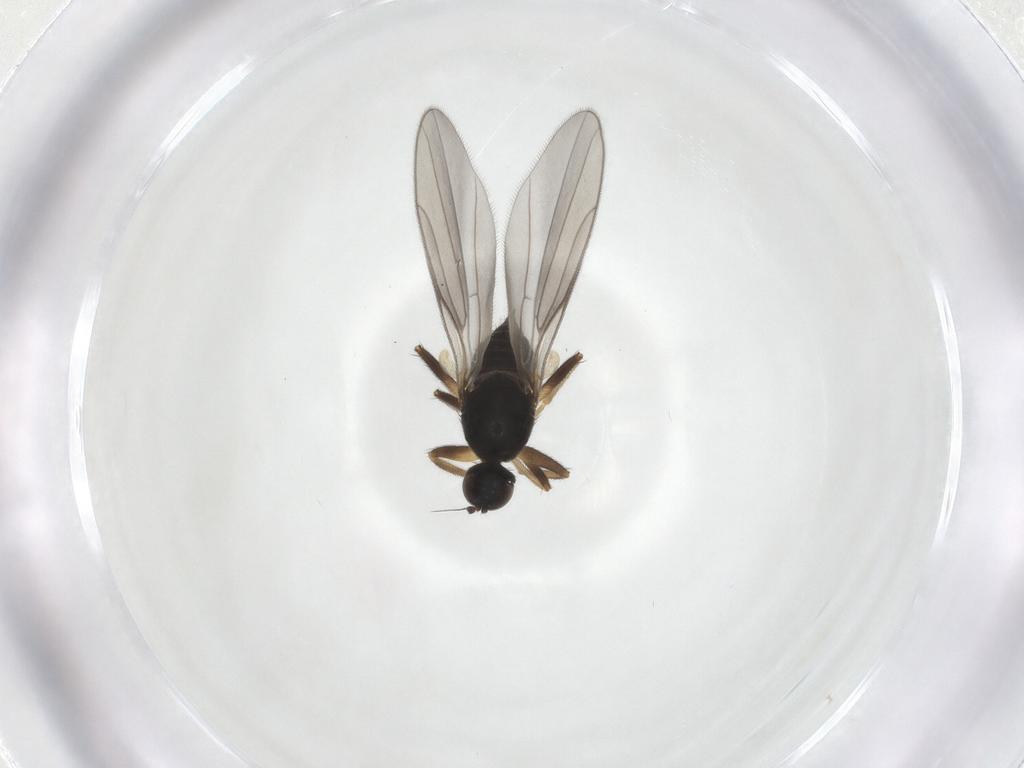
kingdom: Animalia
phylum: Arthropoda
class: Insecta
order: Diptera
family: Hybotidae
